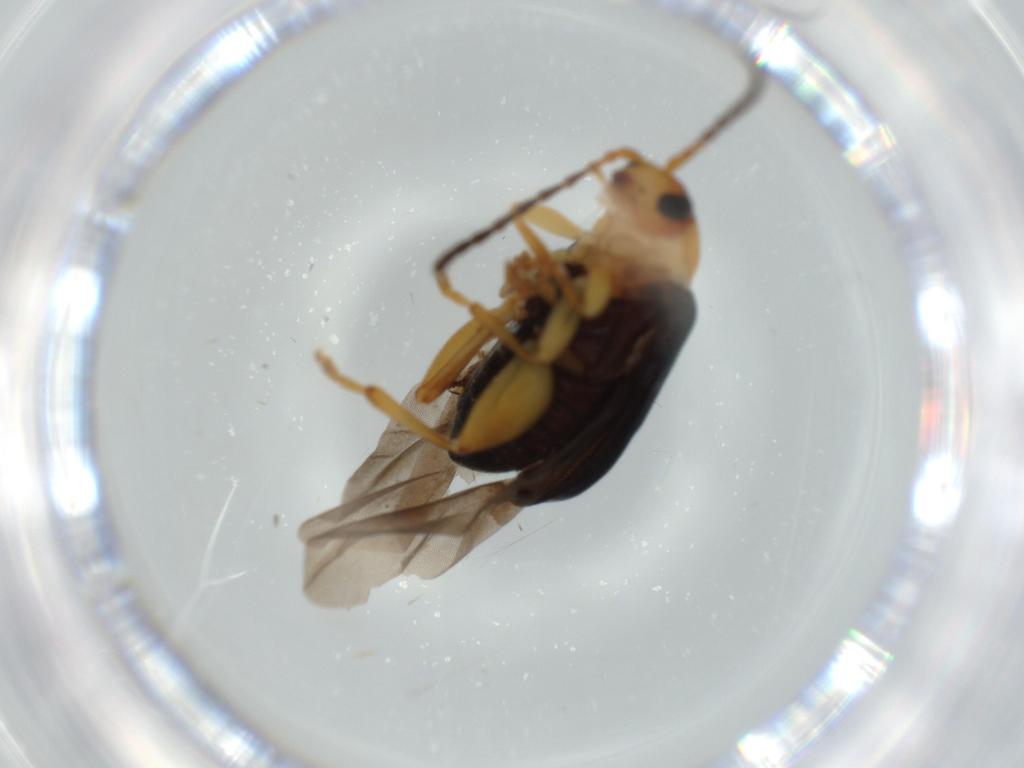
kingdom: Animalia
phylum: Arthropoda
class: Insecta
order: Coleoptera
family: Chrysomelidae
